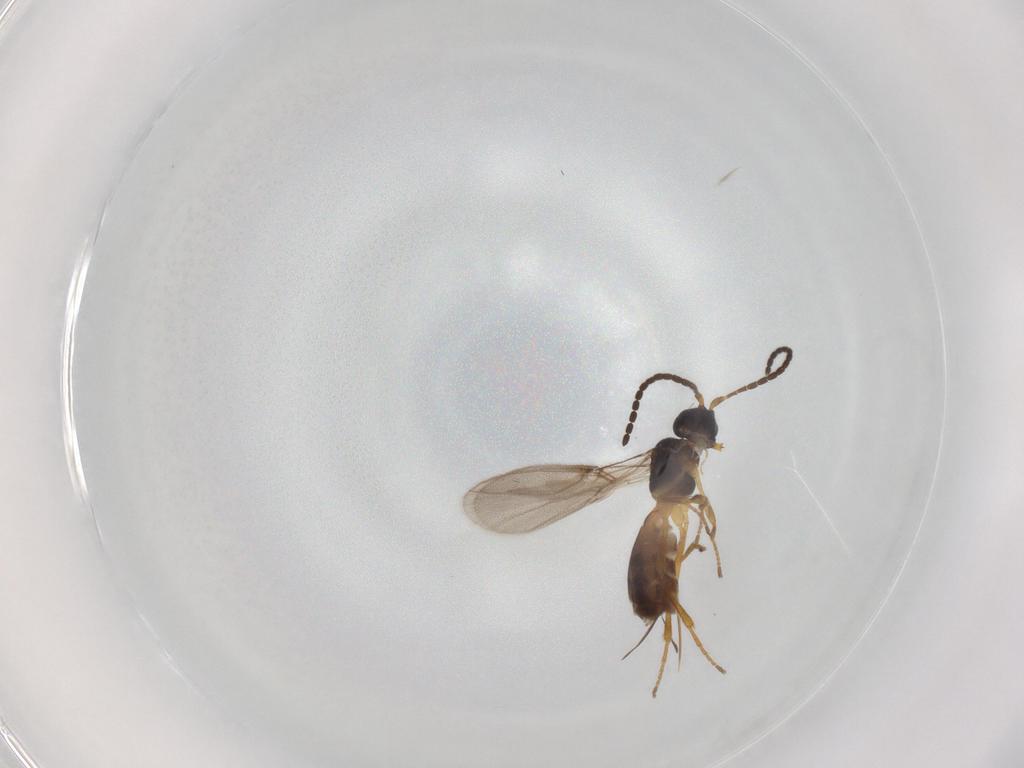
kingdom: Animalia
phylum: Arthropoda
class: Insecta
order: Hymenoptera
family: Braconidae
